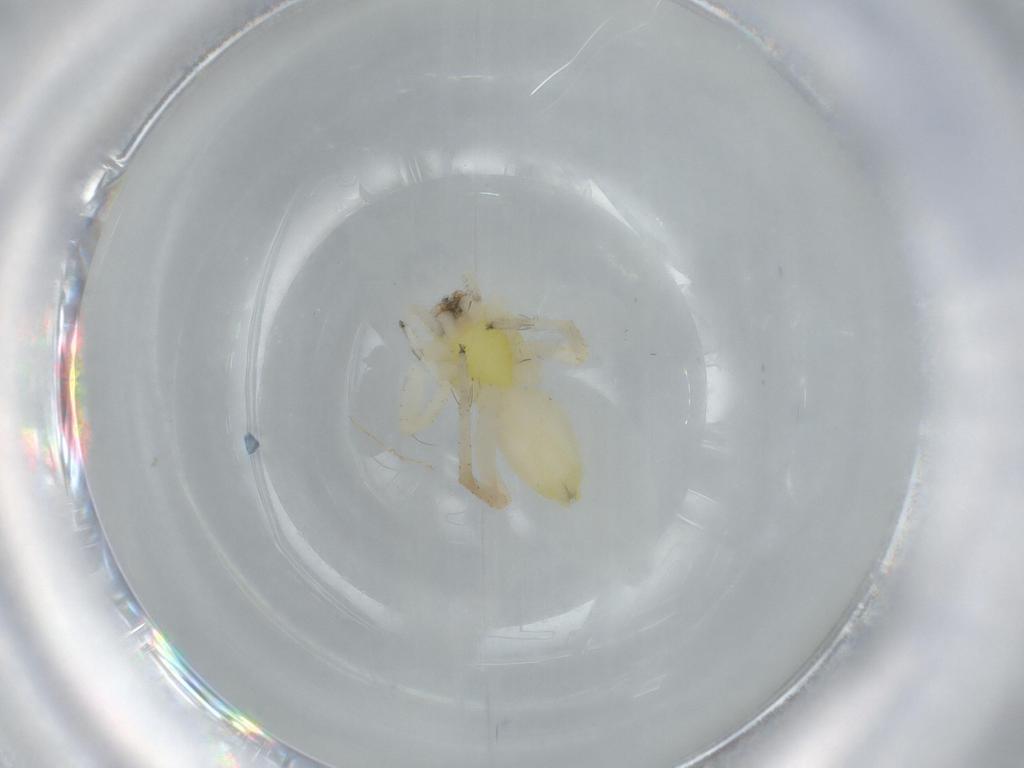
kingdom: Animalia
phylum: Arthropoda
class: Arachnida
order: Araneae
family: Anyphaenidae
